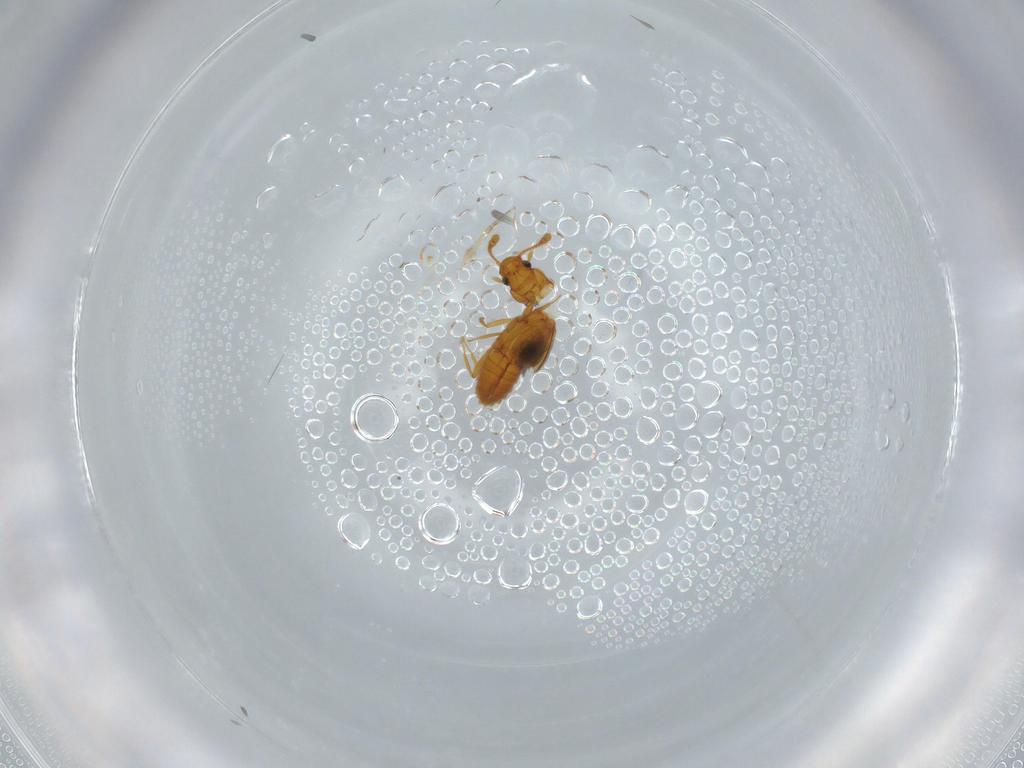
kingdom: Animalia
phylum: Arthropoda
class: Insecta
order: Coleoptera
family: Staphylinidae
